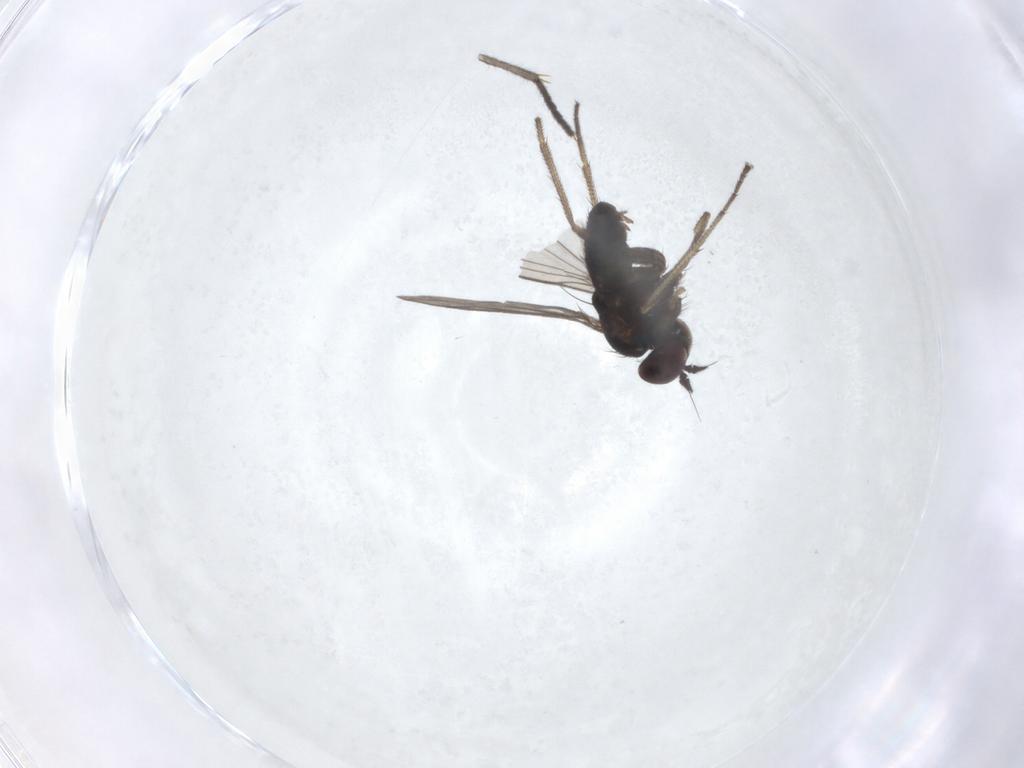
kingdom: Animalia
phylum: Arthropoda
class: Insecta
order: Diptera
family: Dolichopodidae
